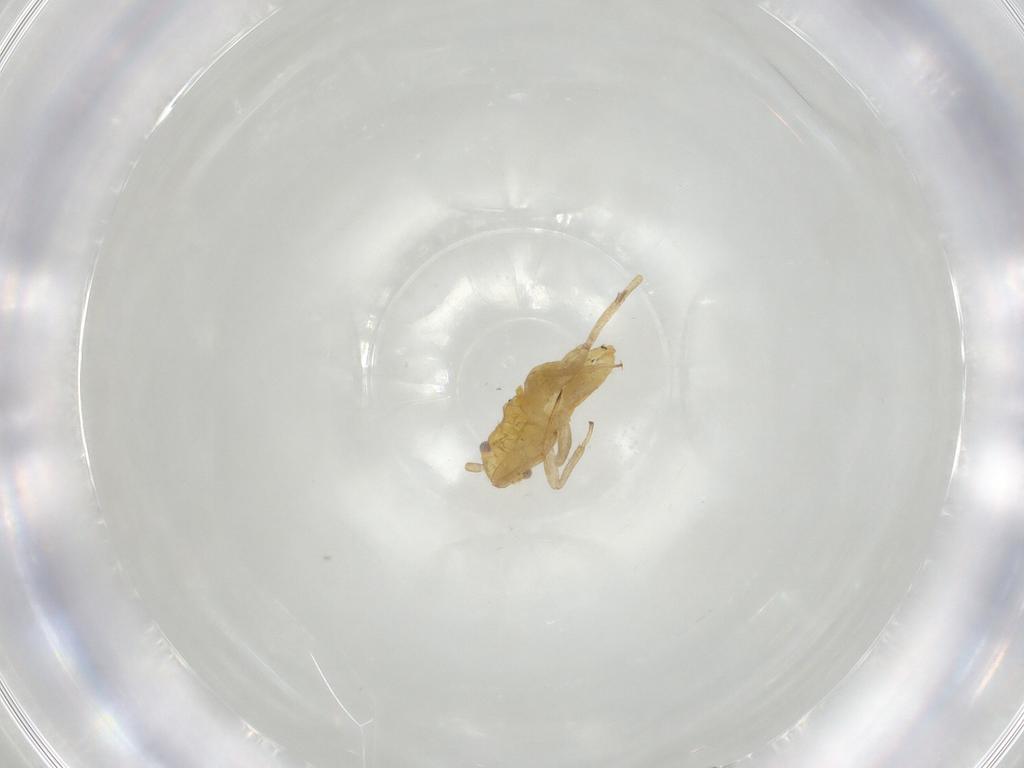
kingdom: Animalia
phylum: Arthropoda
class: Insecta
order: Hemiptera
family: Miridae
